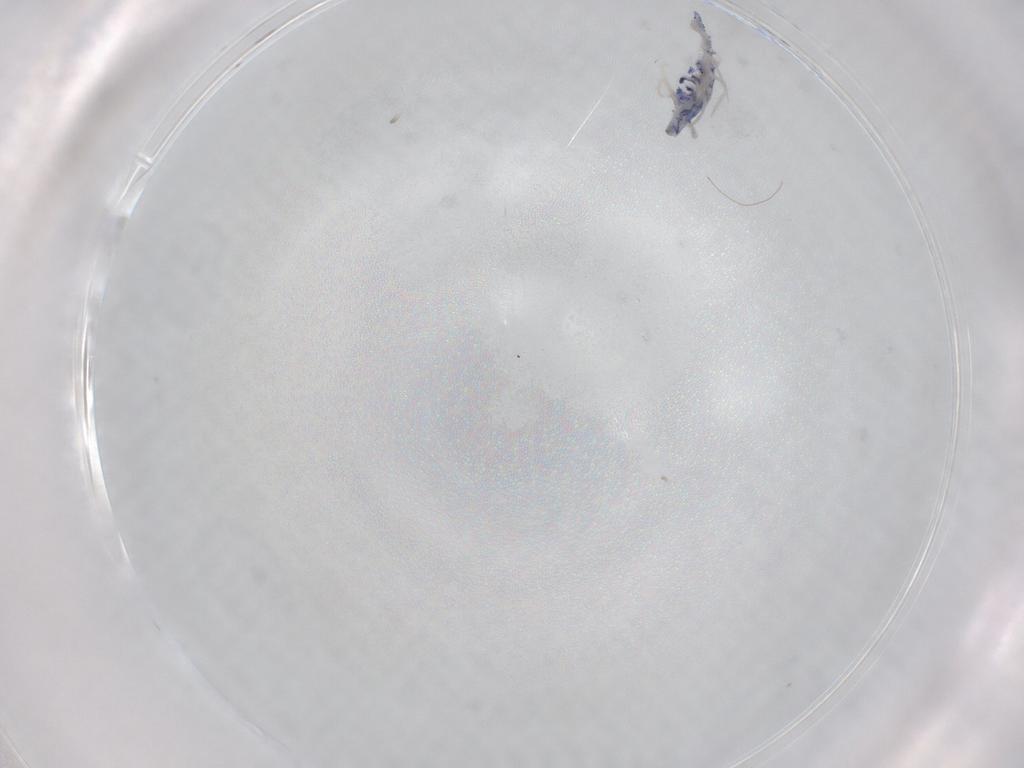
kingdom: Animalia
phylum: Arthropoda
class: Collembola
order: Entomobryomorpha
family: Entomobryidae
